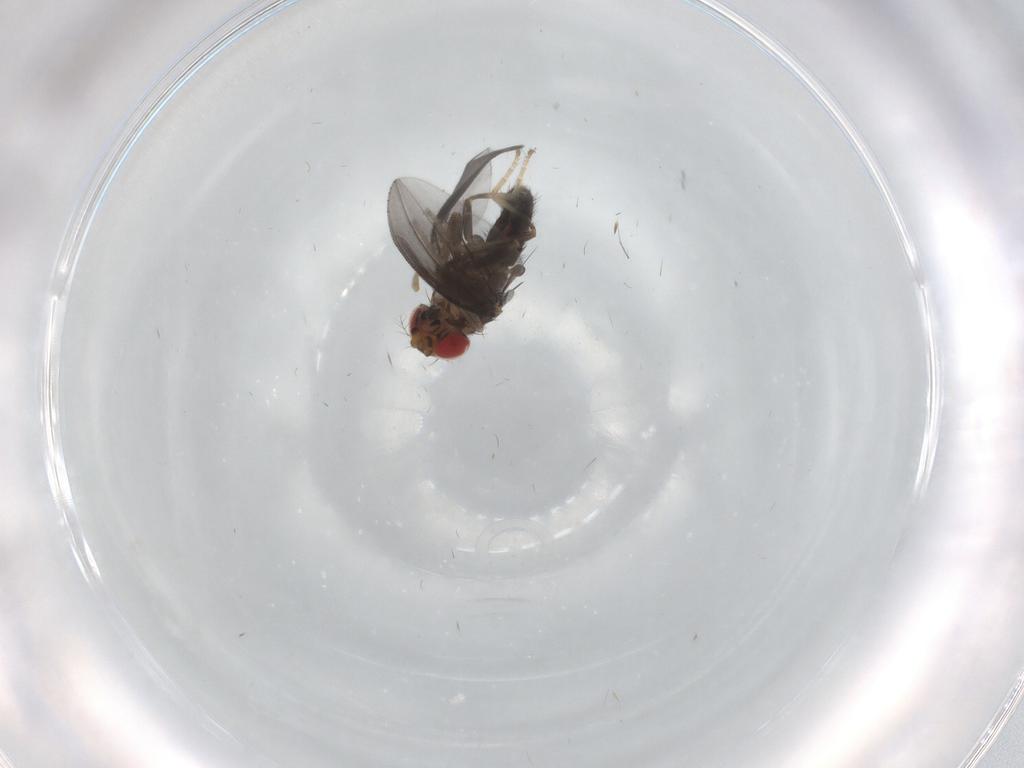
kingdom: Animalia
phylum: Arthropoda
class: Insecta
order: Diptera
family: Drosophilidae
